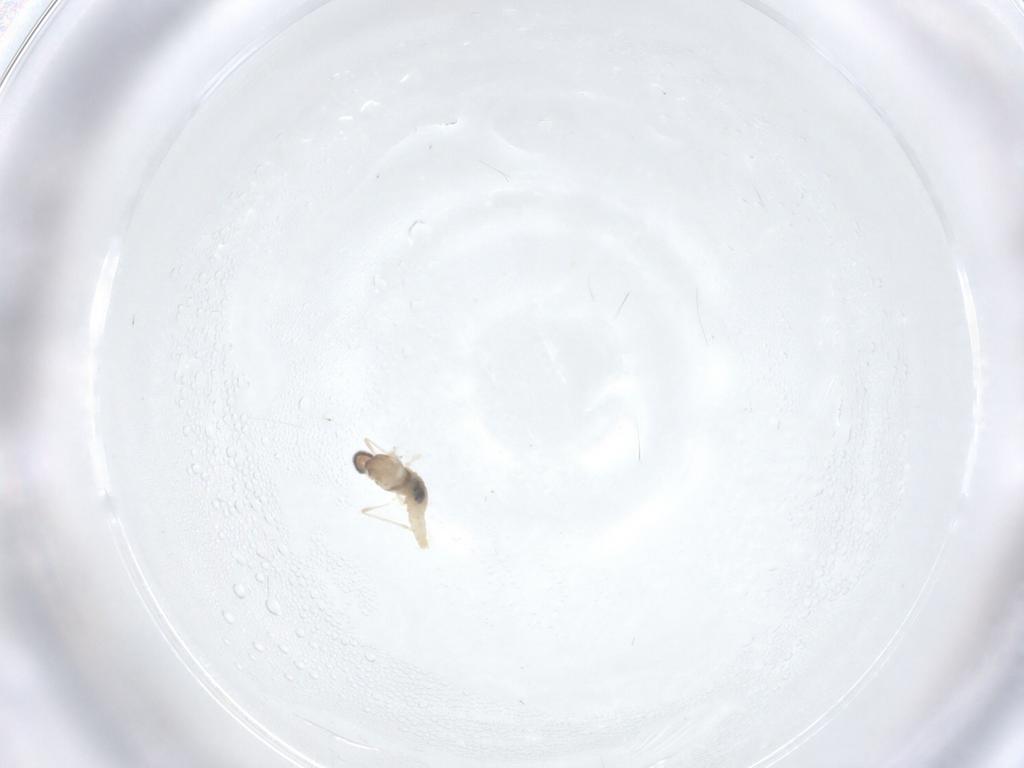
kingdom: Animalia
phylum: Arthropoda
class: Insecta
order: Diptera
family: Cecidomyiidae
